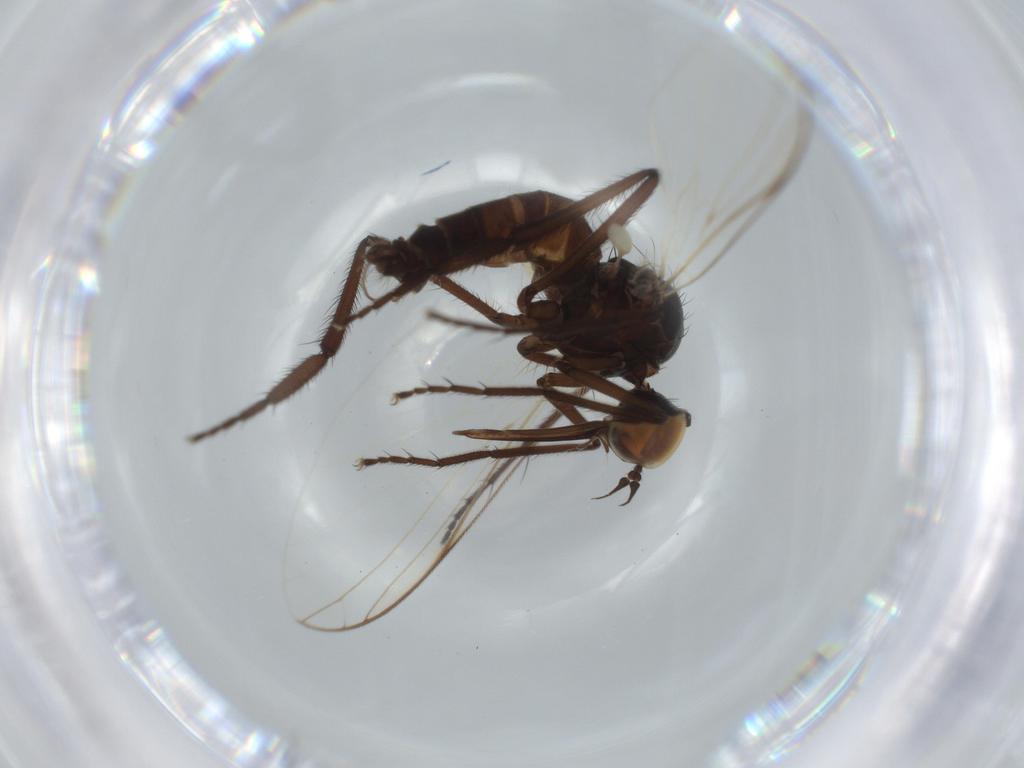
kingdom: Animalia
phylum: Arthropoda
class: Insecta
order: Diptera
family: Empididae
